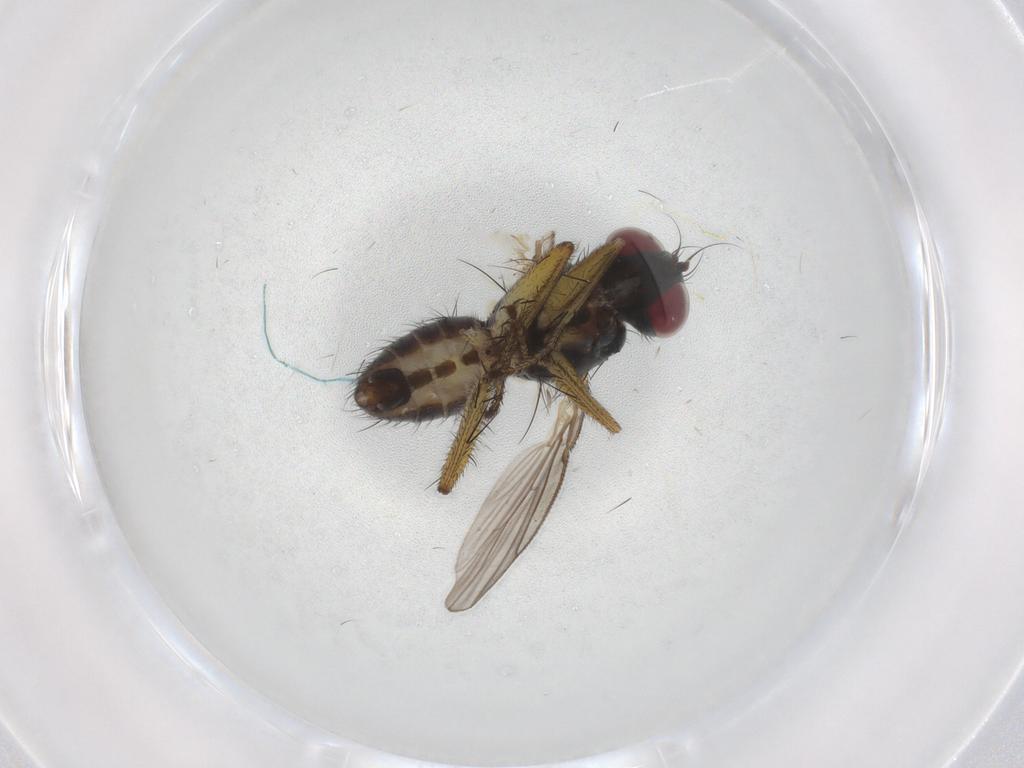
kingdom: Animalia
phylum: Arthropoda
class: Insecta
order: Diptera
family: Muscidae
